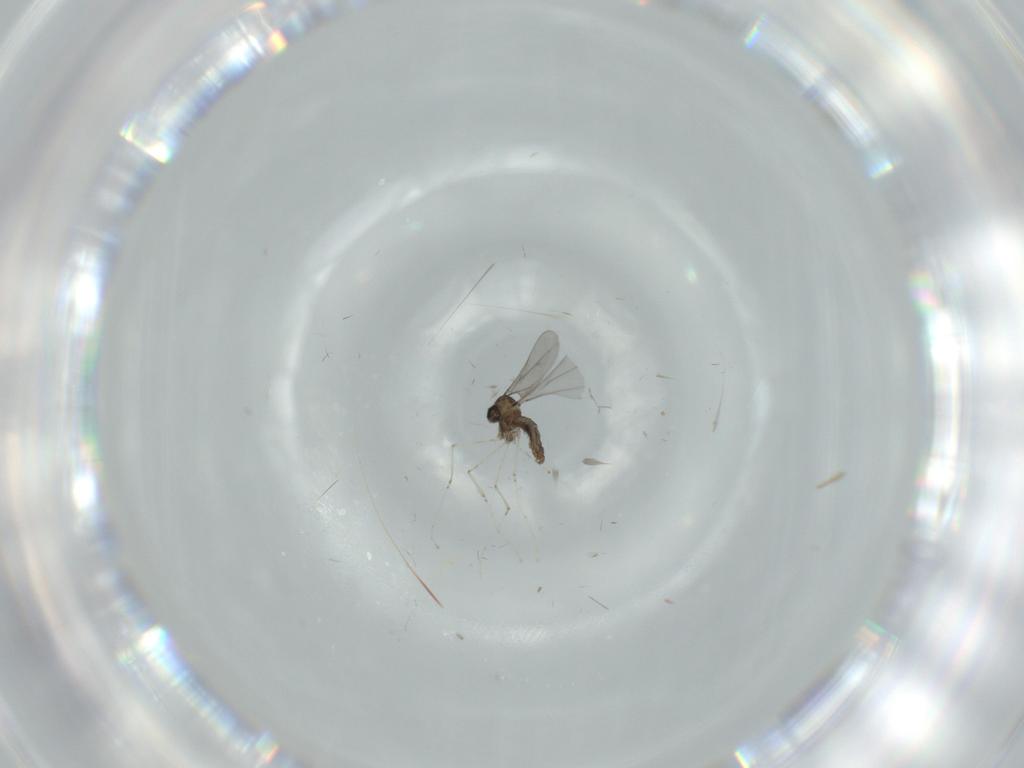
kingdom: Animalia
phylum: Arthropoda
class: Insecta
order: Diptera
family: Cecidomyiidae
